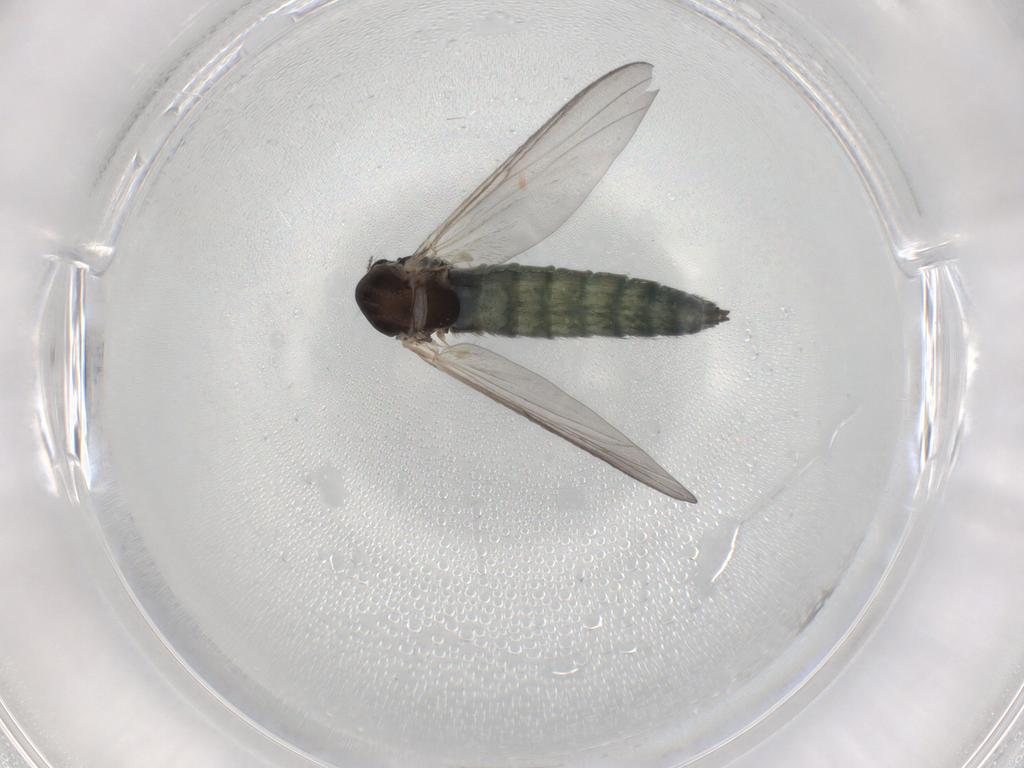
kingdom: Animalia
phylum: Arthropoda
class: Insecta
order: Diptera
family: Chironomidae
